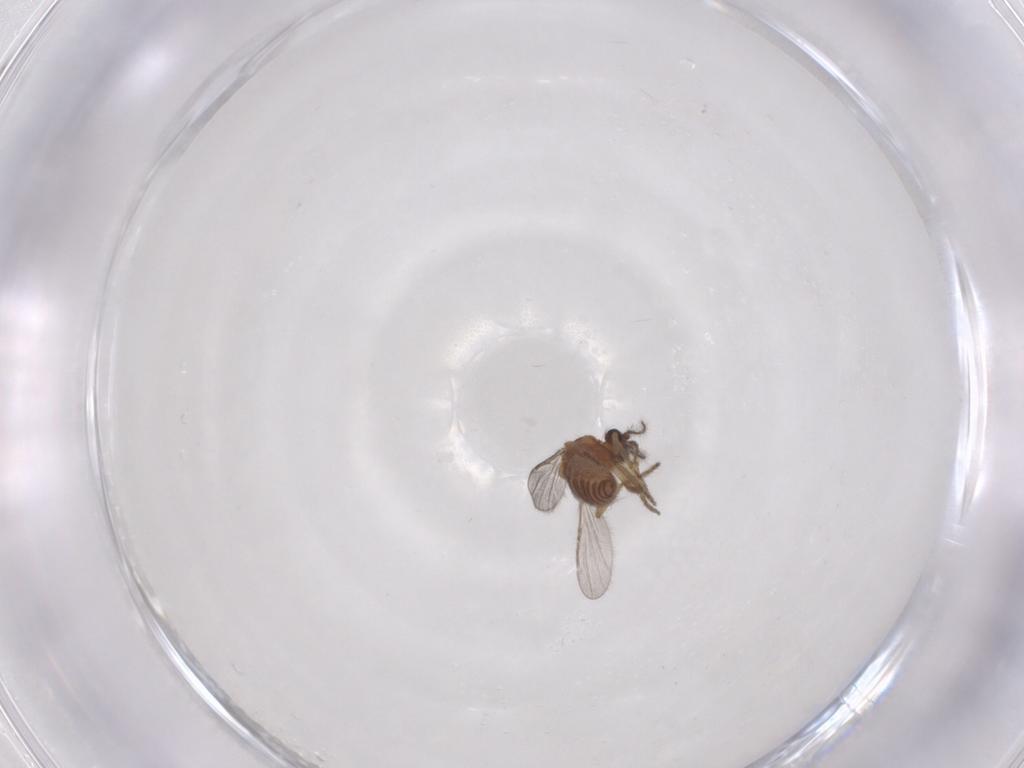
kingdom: Animalia
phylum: Arthropoda
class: Insecta
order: Diptera
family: Ceratopogonidae
